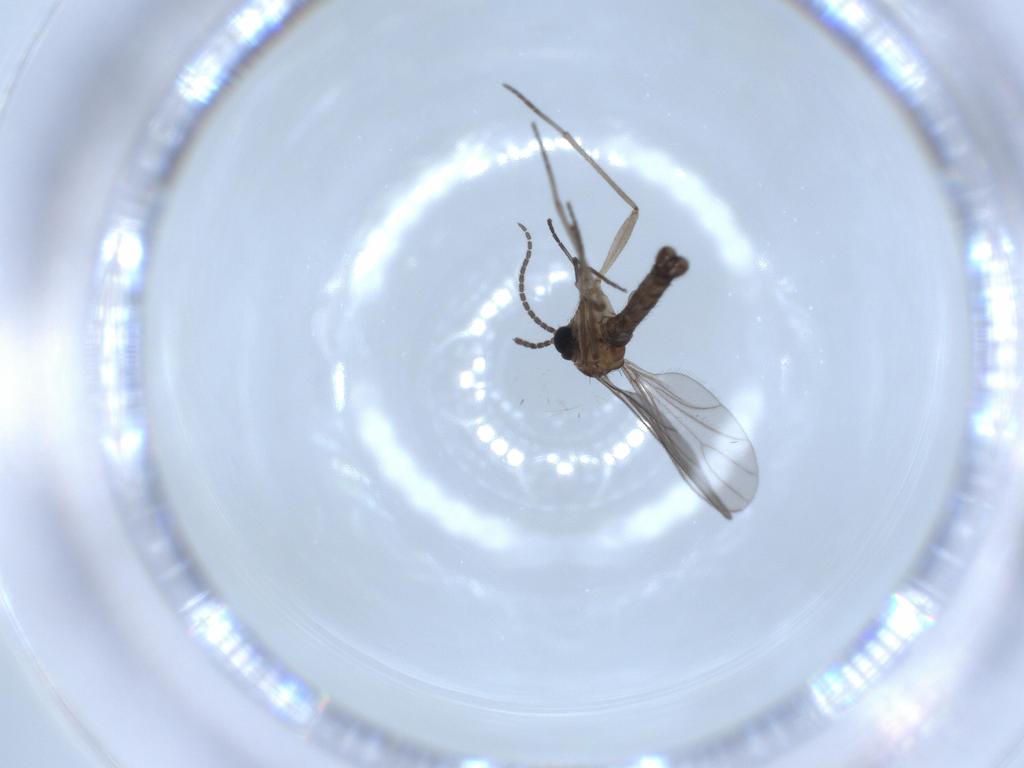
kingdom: Animalia
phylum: Arthropoda
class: Insecta
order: Diptera
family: Sciaridae
